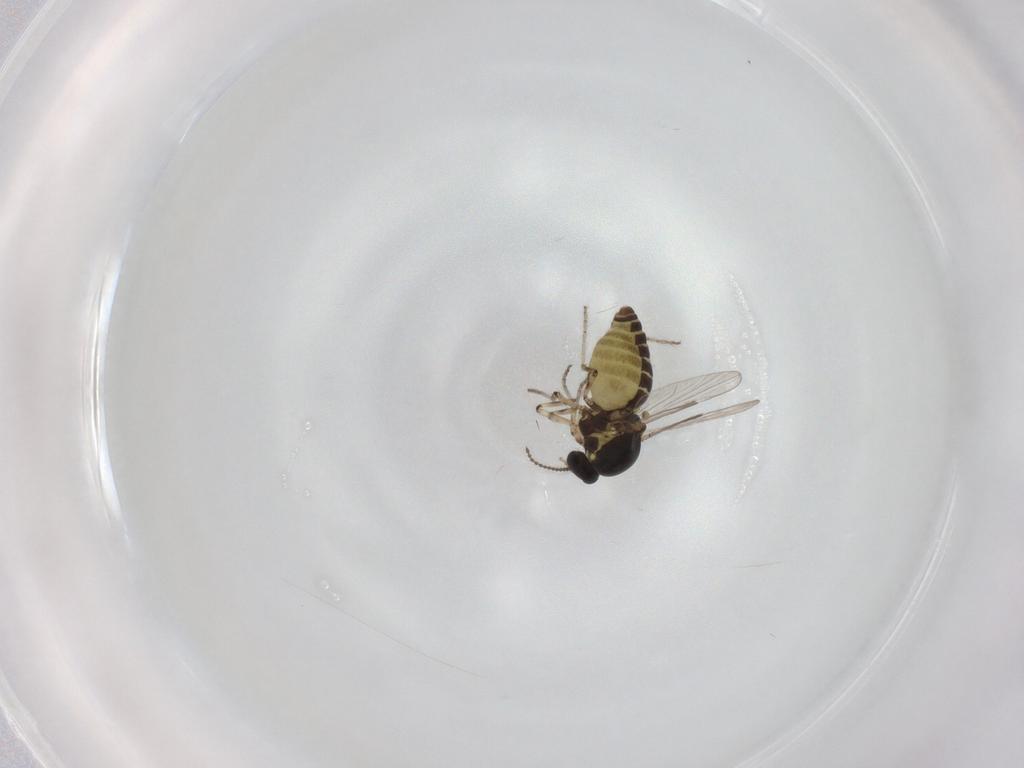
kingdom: Animalia
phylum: Arthropoda
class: Insecta
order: Diptera
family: Ceratopogonidae
